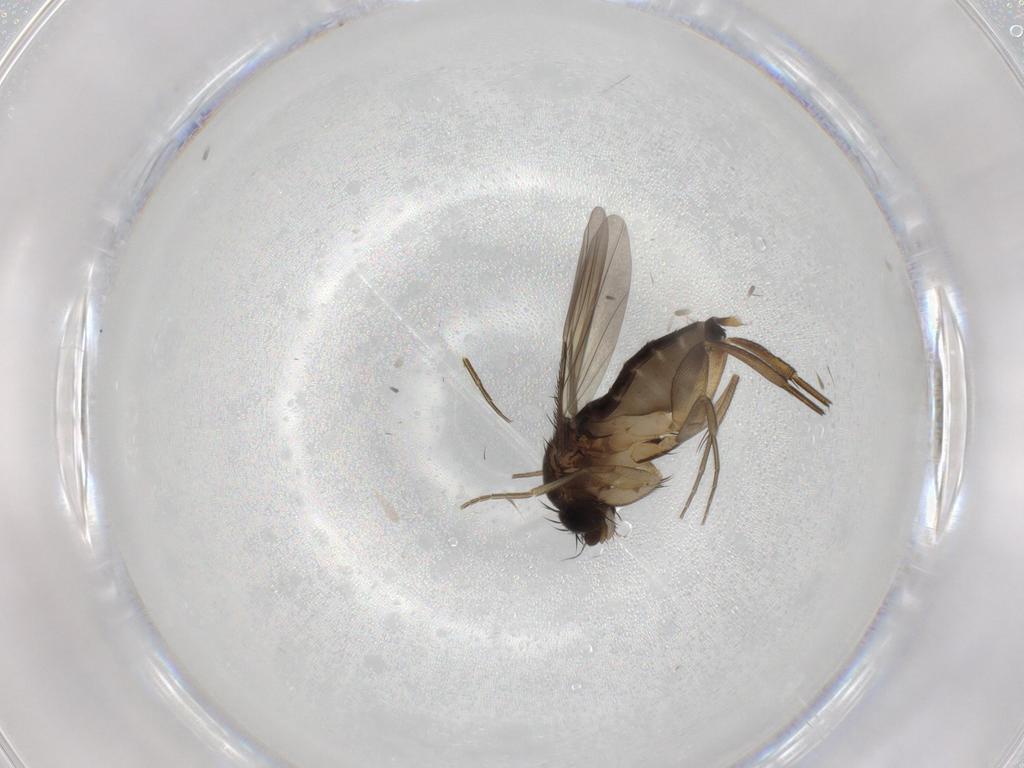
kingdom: Animalia
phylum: Arthropoda
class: Insecta
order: Diptera
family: Phoridae
